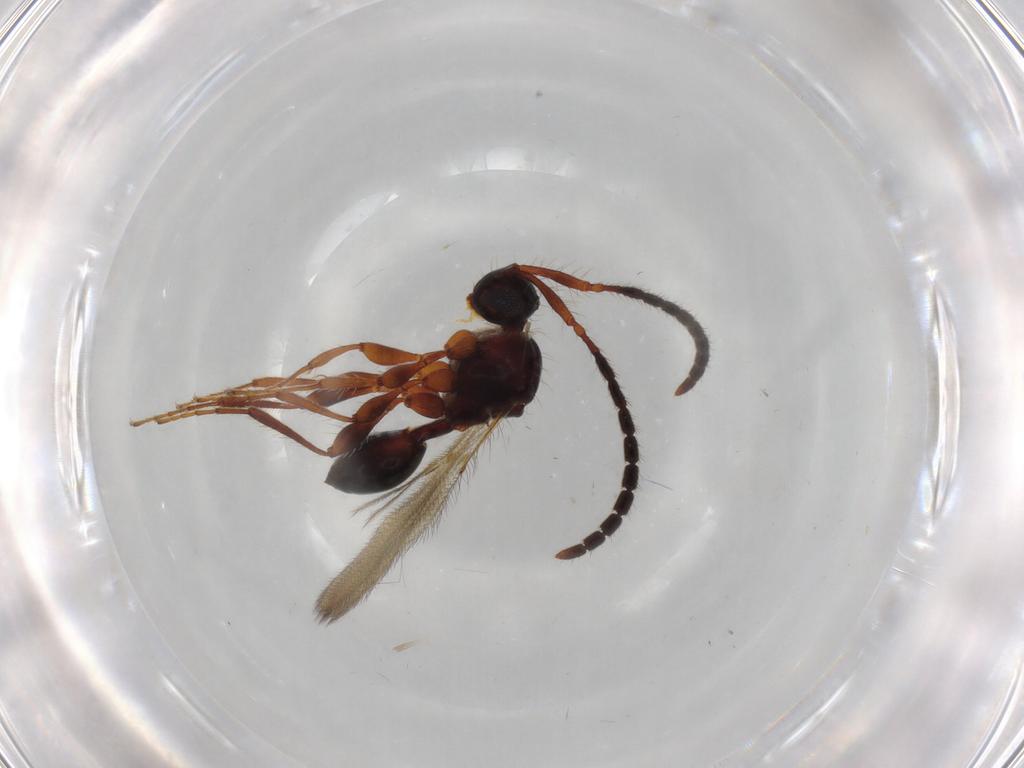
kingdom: Animalia
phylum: Arthropoda
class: Insecta
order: Hymenoptera
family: Diapriidae
